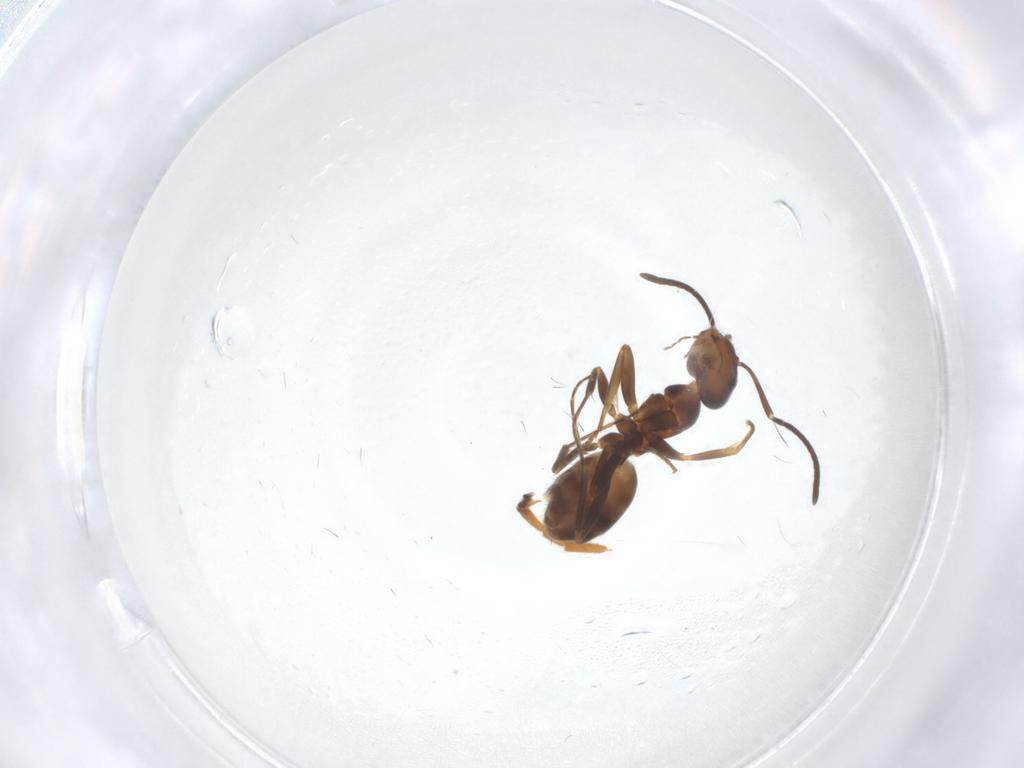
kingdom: Animalia
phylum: Arthropoda
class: Insecta
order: Hymenoptera
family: Formicidae
